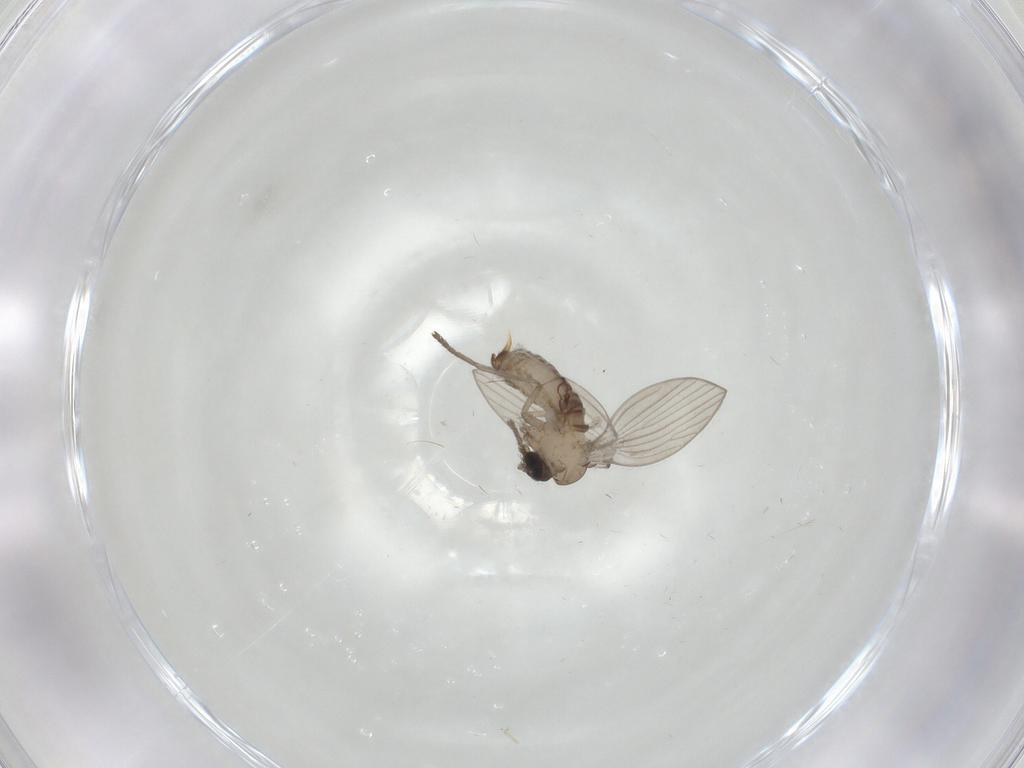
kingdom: Animalia
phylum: Arthropoda
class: Insecta
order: Diptera
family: Psychodidae
